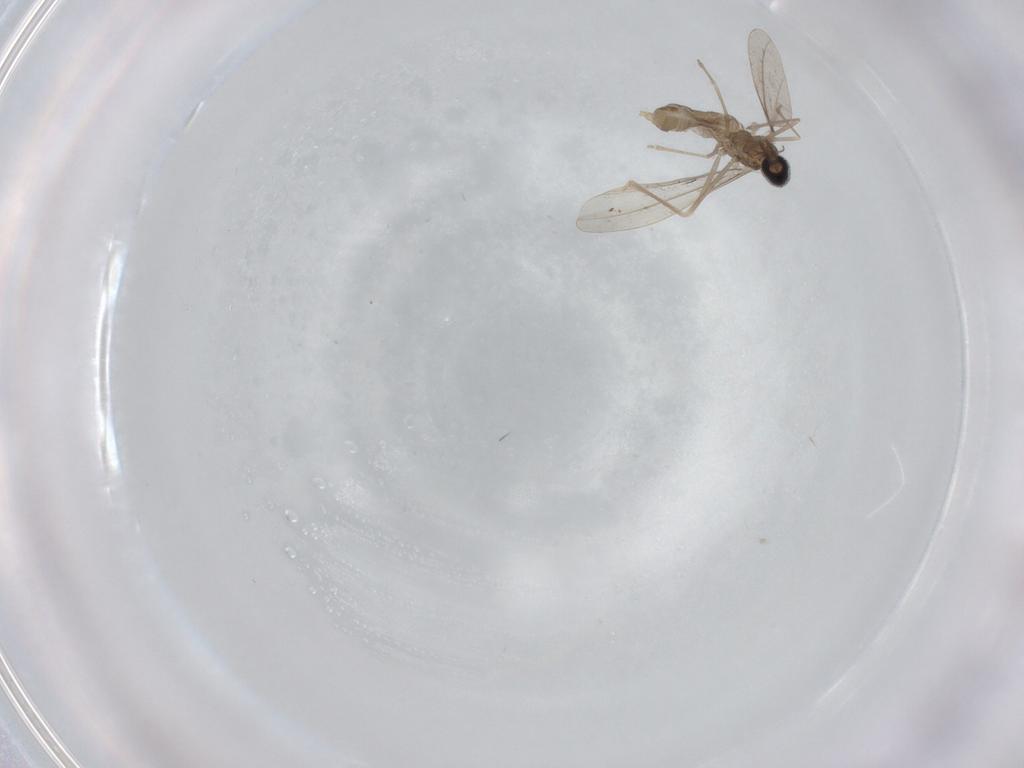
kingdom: Animalia
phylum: Arthropoda
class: Insecta
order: Diptera
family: Cecidomyiidae
